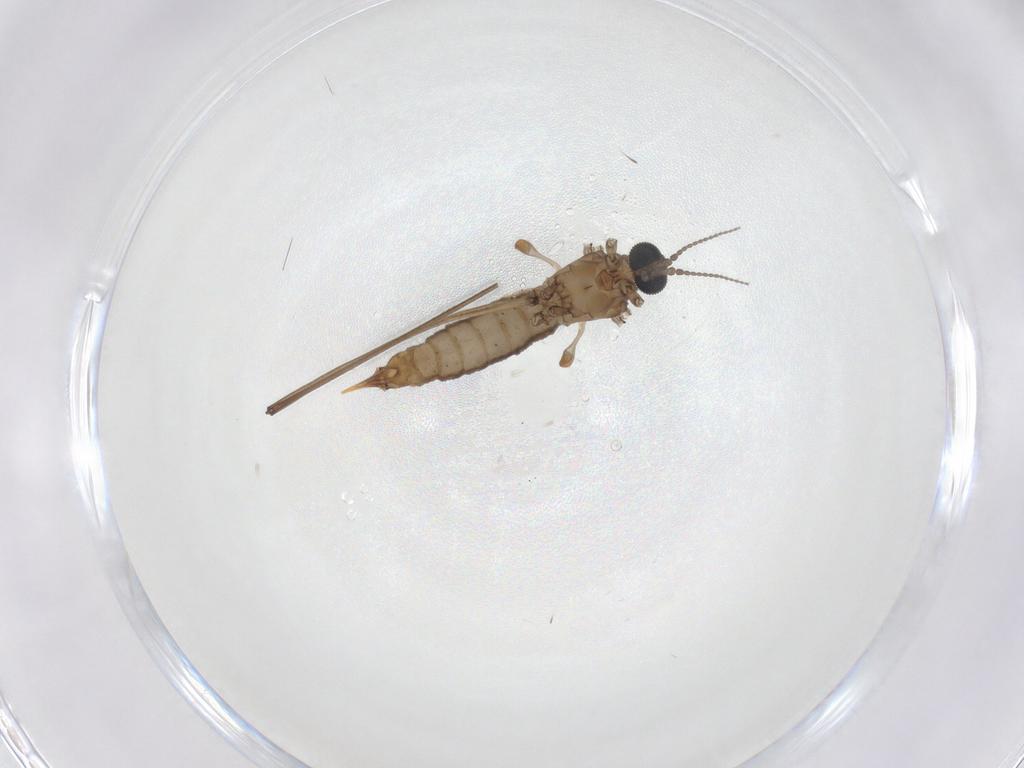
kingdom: Animalia
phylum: Arthropoda
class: Insecta
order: Diptera
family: Limoniidae
